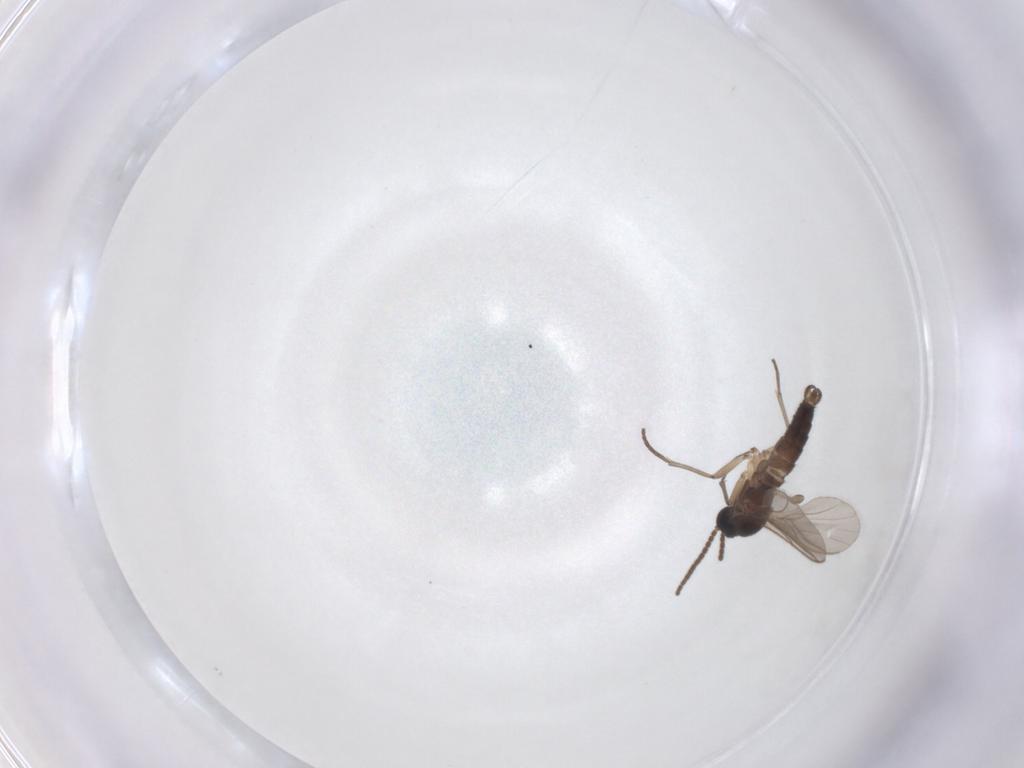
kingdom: Animalia
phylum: Arthropoda
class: Insecta
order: Diptera
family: Sciaridae
